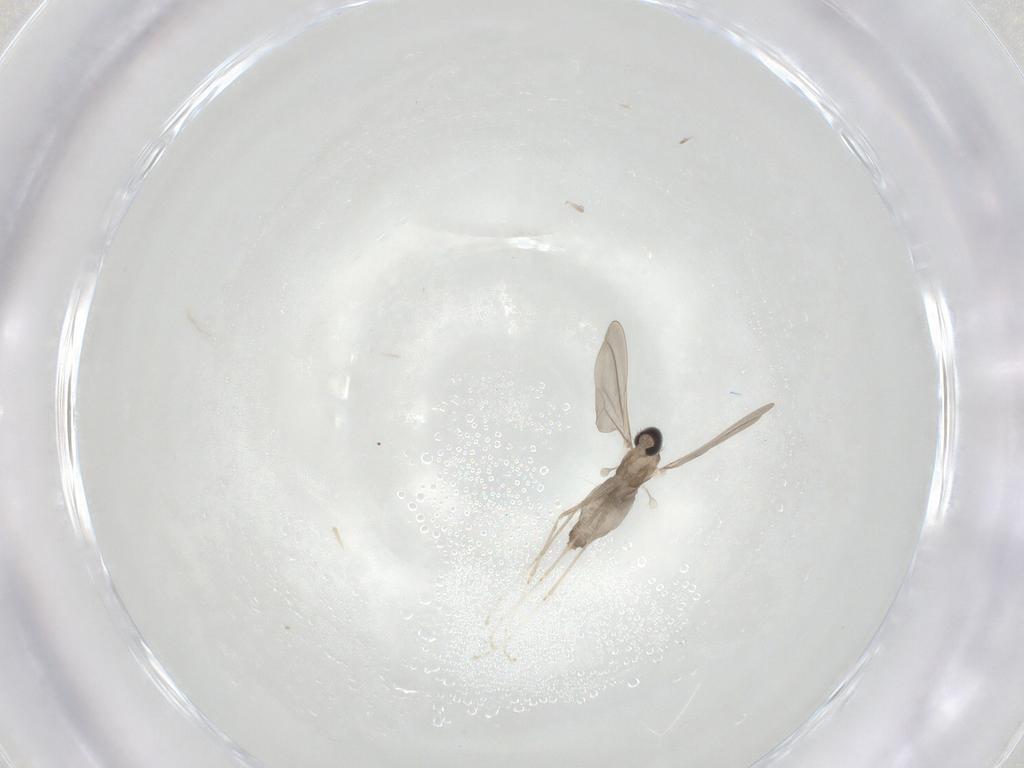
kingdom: Animalia
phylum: Arthropoda
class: Insecta
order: Diptera
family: Cecidomyiidae
